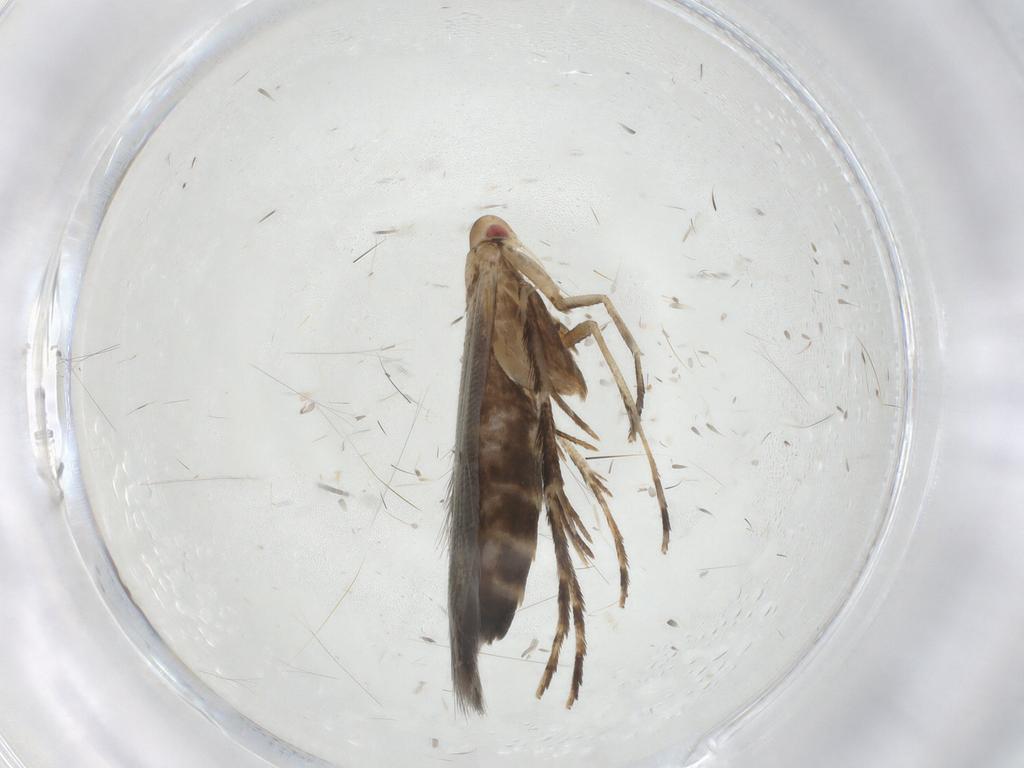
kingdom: Animalia
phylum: Arthropoda
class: Insecta
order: Lepidoptera
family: Cosmopterigidae
